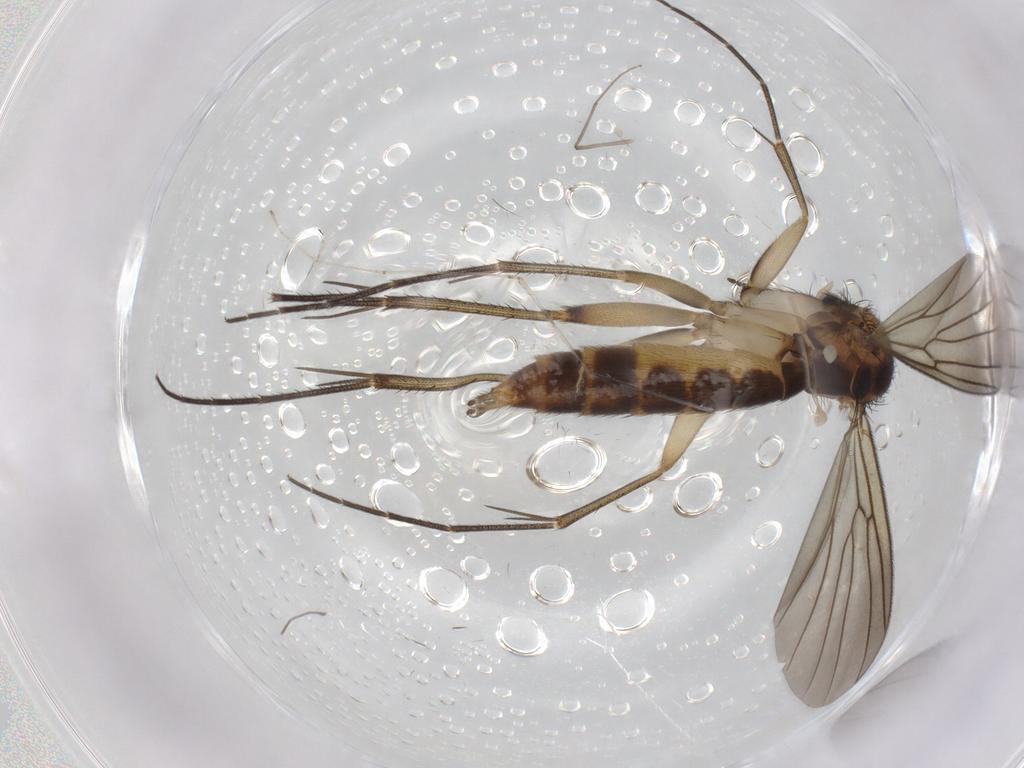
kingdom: Animalia
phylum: Arthropoda
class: Insecta
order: Diptera
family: Mycetophilidae
